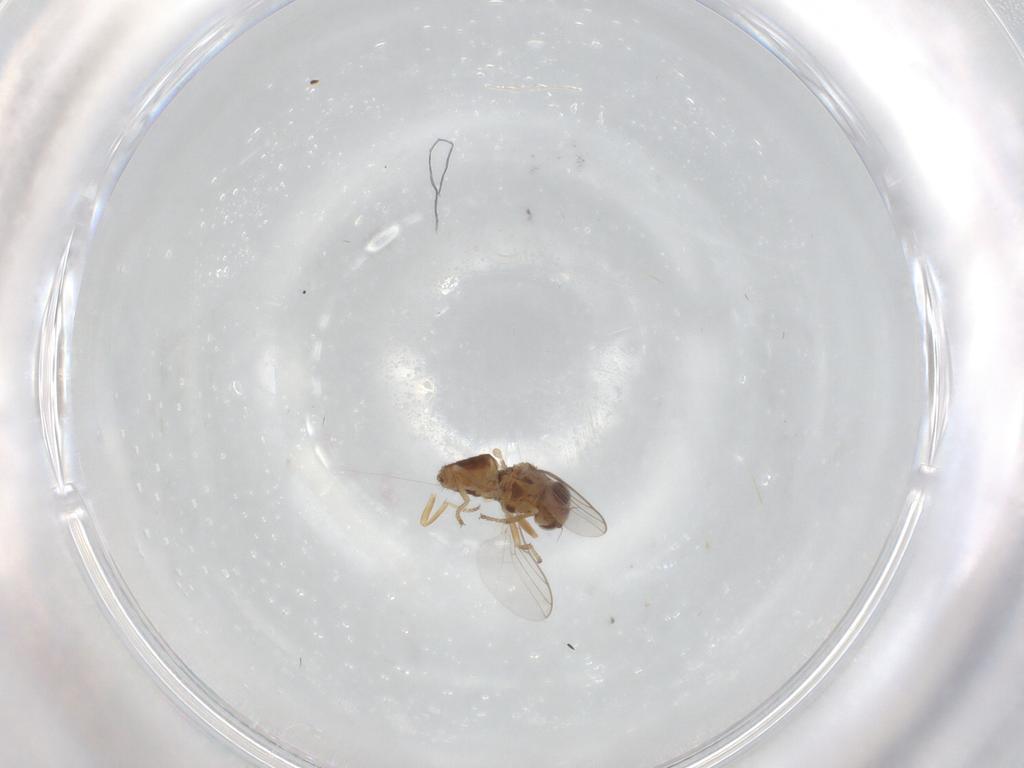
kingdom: Animalia
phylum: Arthropoda
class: Insecta
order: Diptera
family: Chloropidae
